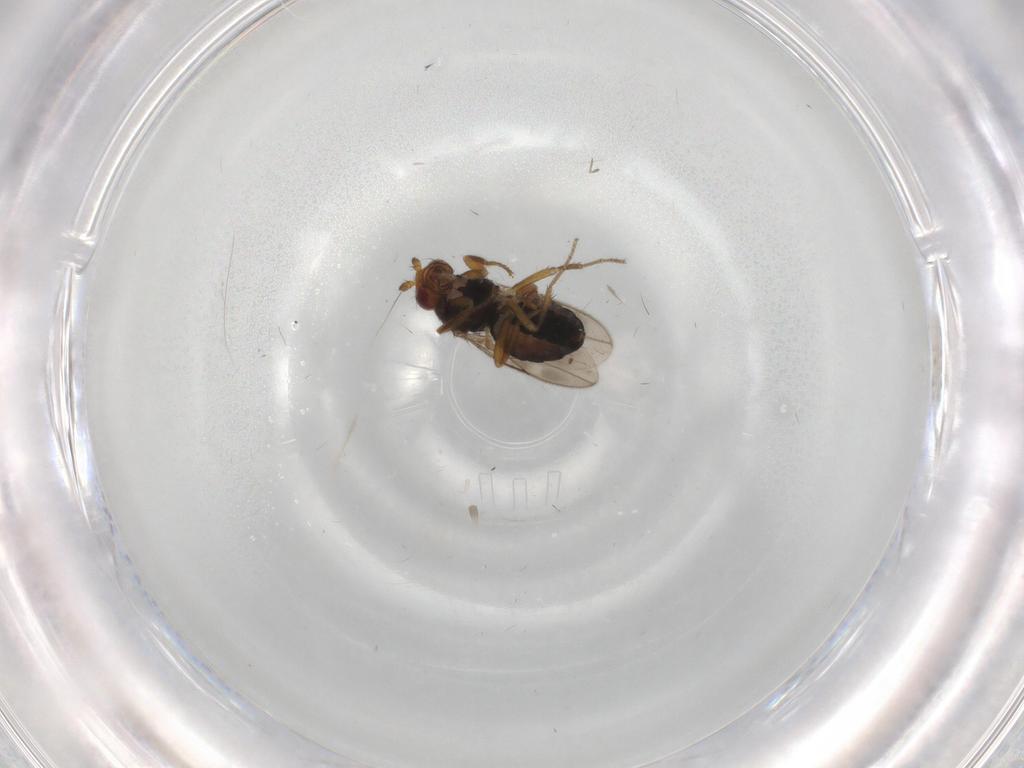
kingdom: Animalia
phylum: Arthropoda
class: Insecta
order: Diptera
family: Sphaeroceridae
